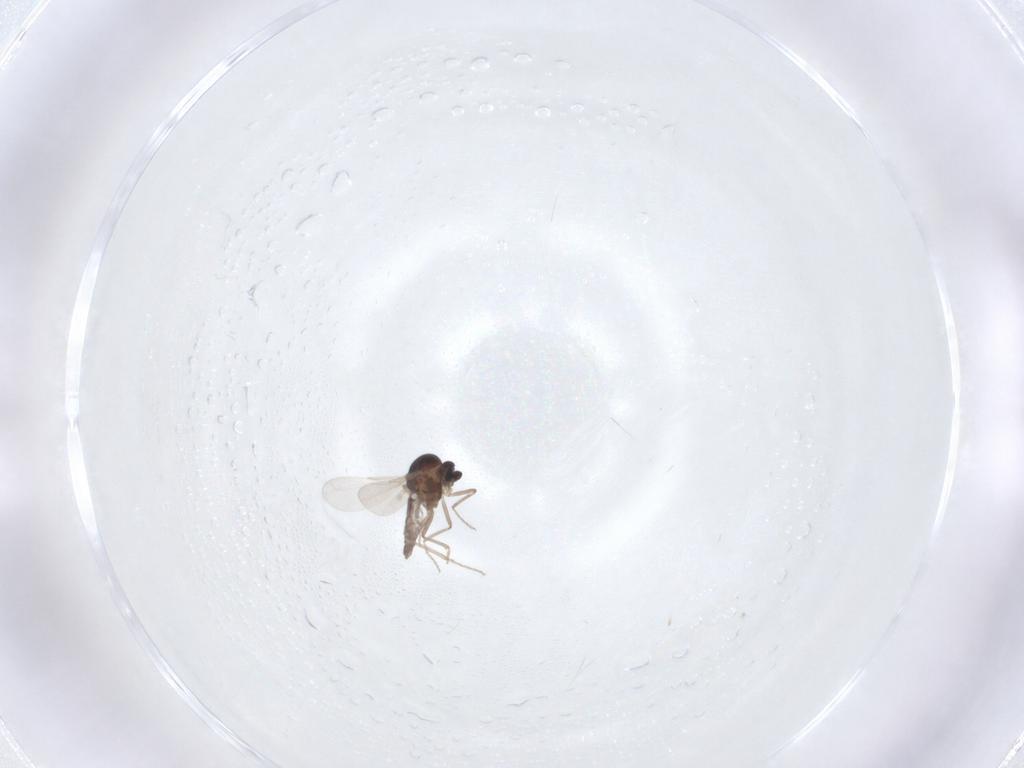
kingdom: Animalia
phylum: Arthropoda
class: Insecta
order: Diptera
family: Ceratopogonidae
